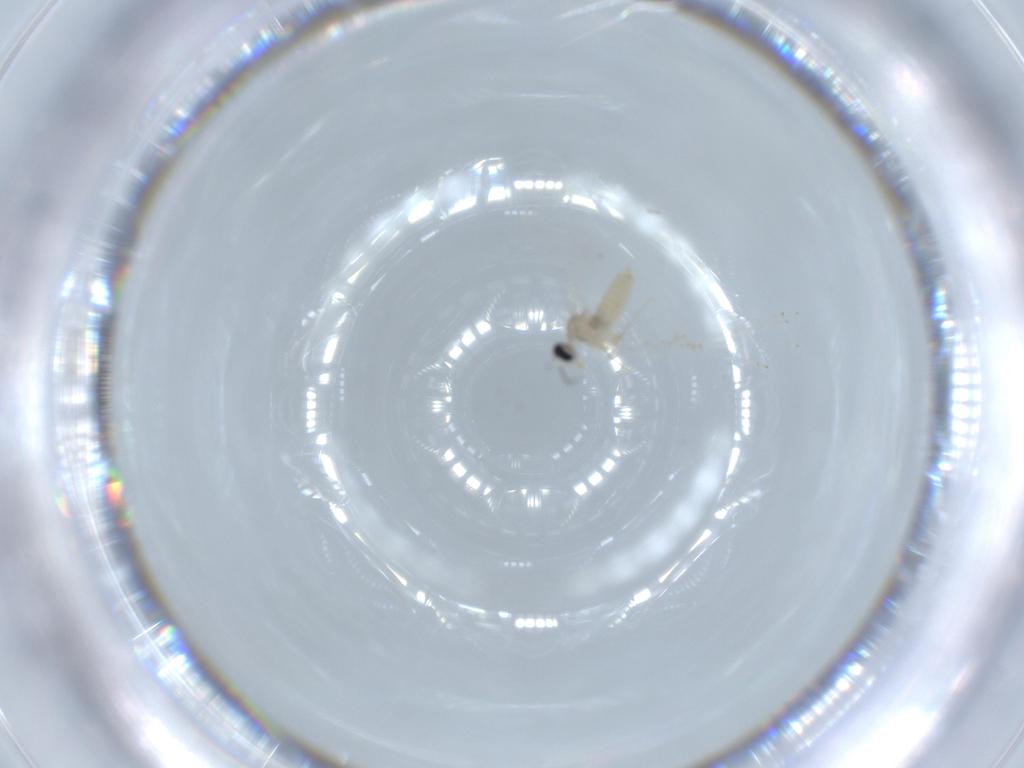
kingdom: Animalia
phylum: Arthropoda
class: Insecta
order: Diptera
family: Cecidomyiidae
